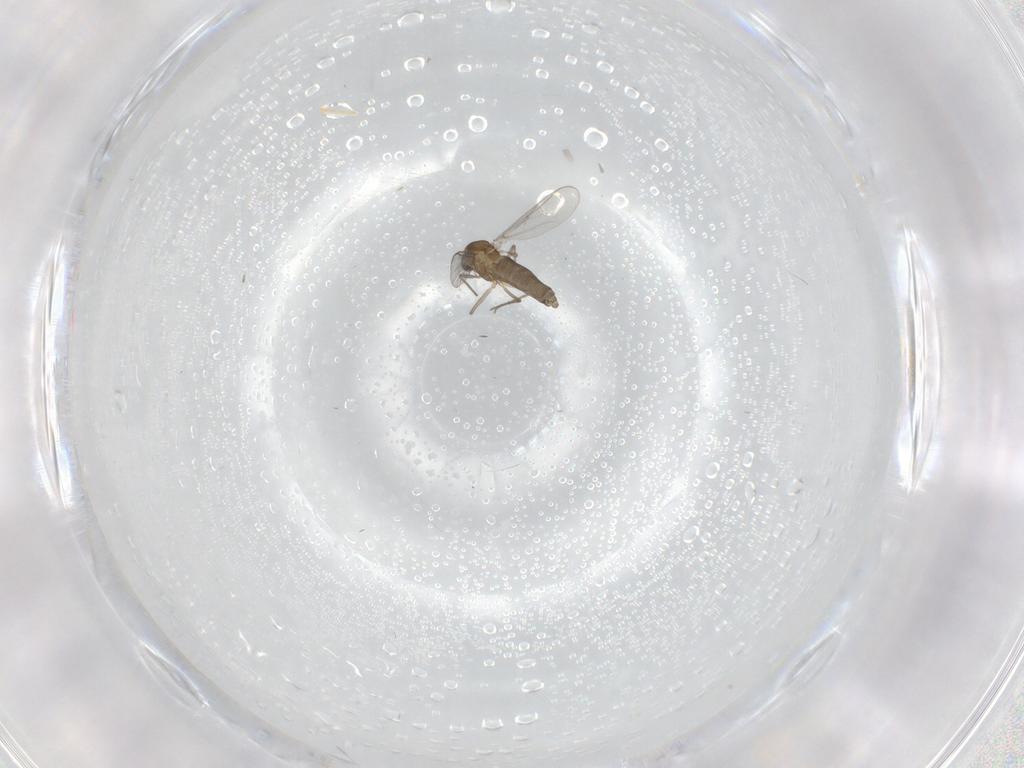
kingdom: Animalia
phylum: Arthropoda
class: Insecta
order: Diptera
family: Chironomidae
